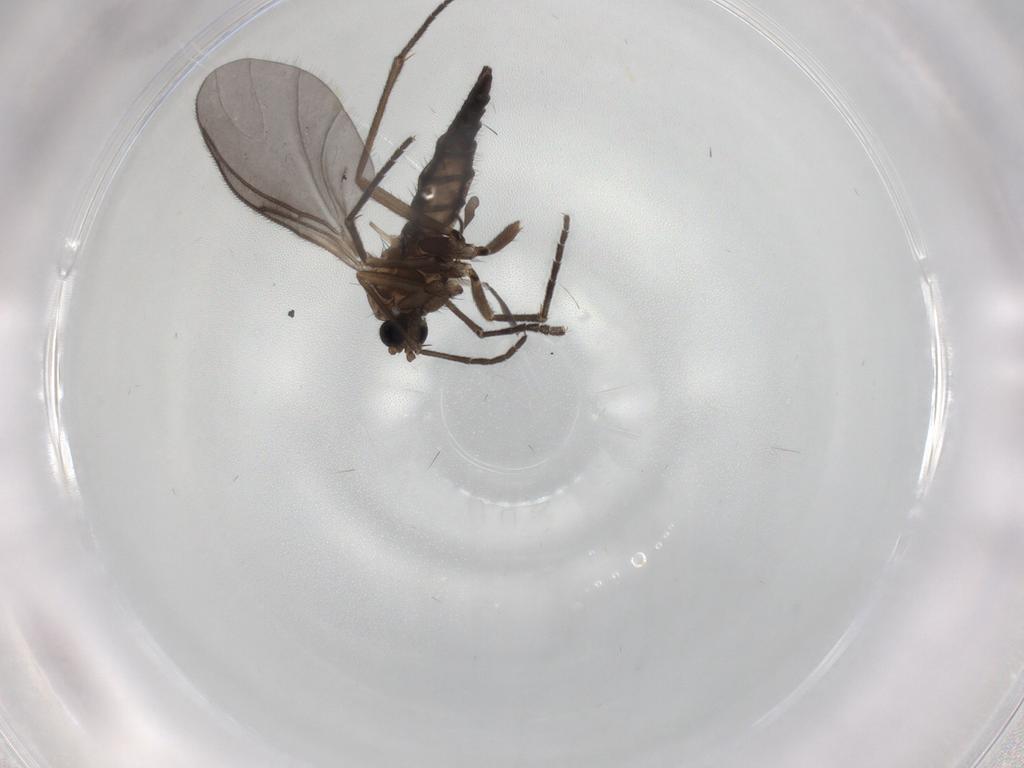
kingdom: Animalia
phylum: Arthropoda
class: Insecta
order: Diptera
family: Sciaridae
